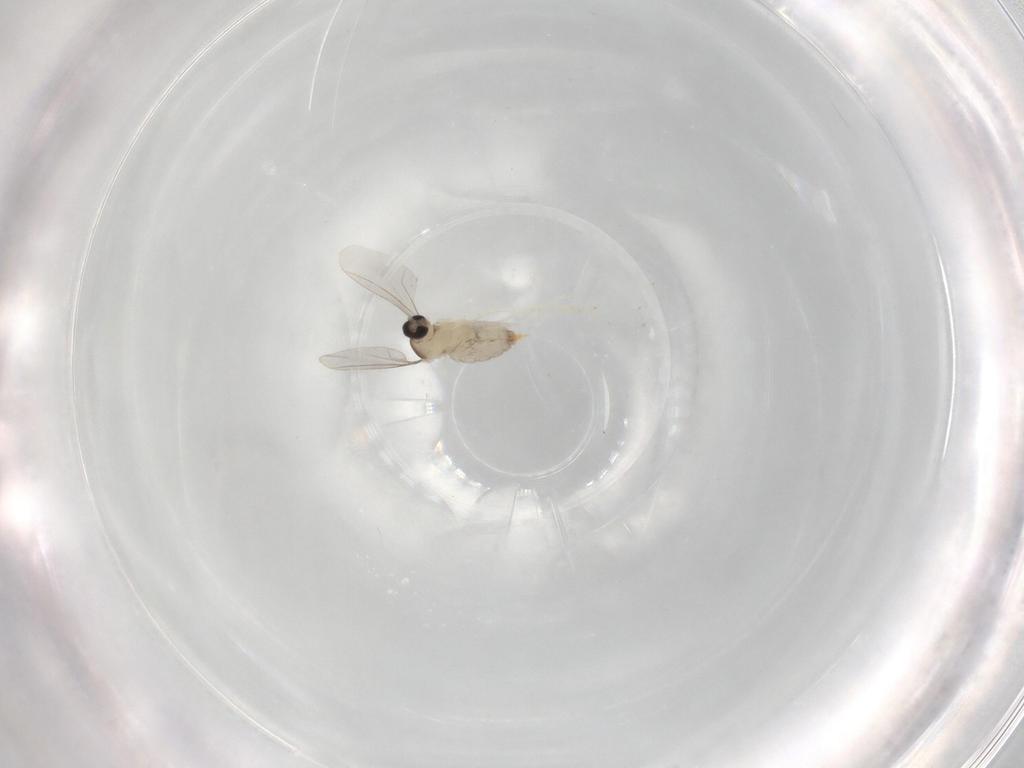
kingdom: Animalia
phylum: Arthropoda
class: Insecta
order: Diptera
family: Cecidomyiidae
